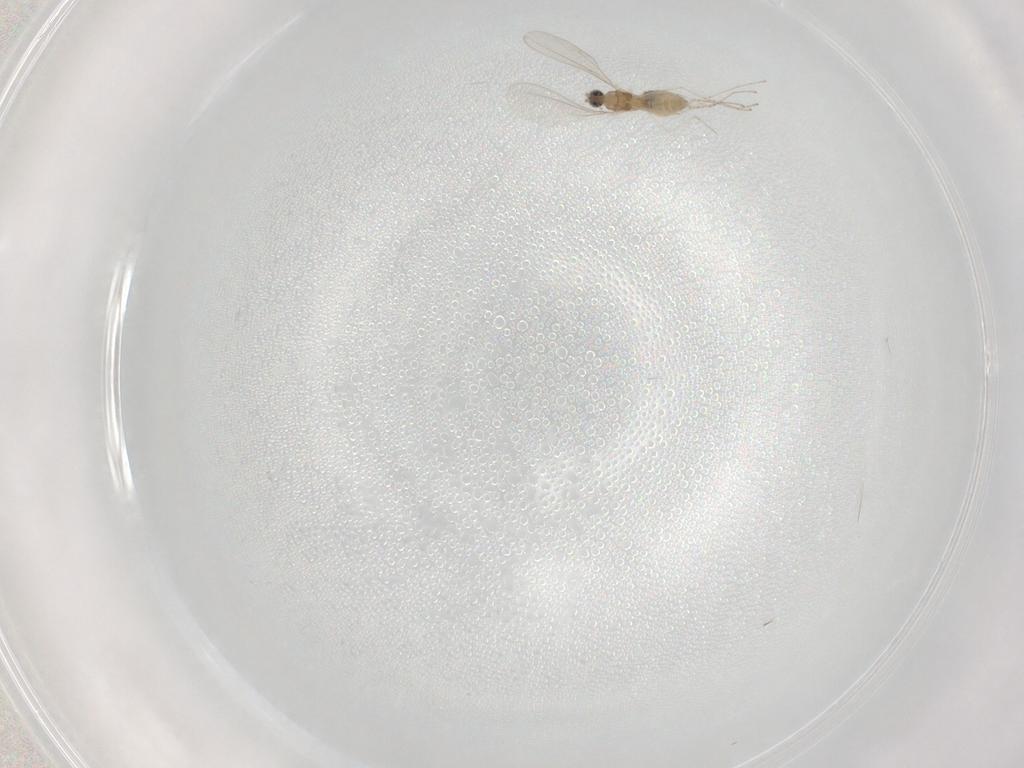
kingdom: Animalia
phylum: Arthropoda
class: Insecta
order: Diptera
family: Cecidomyiidae
